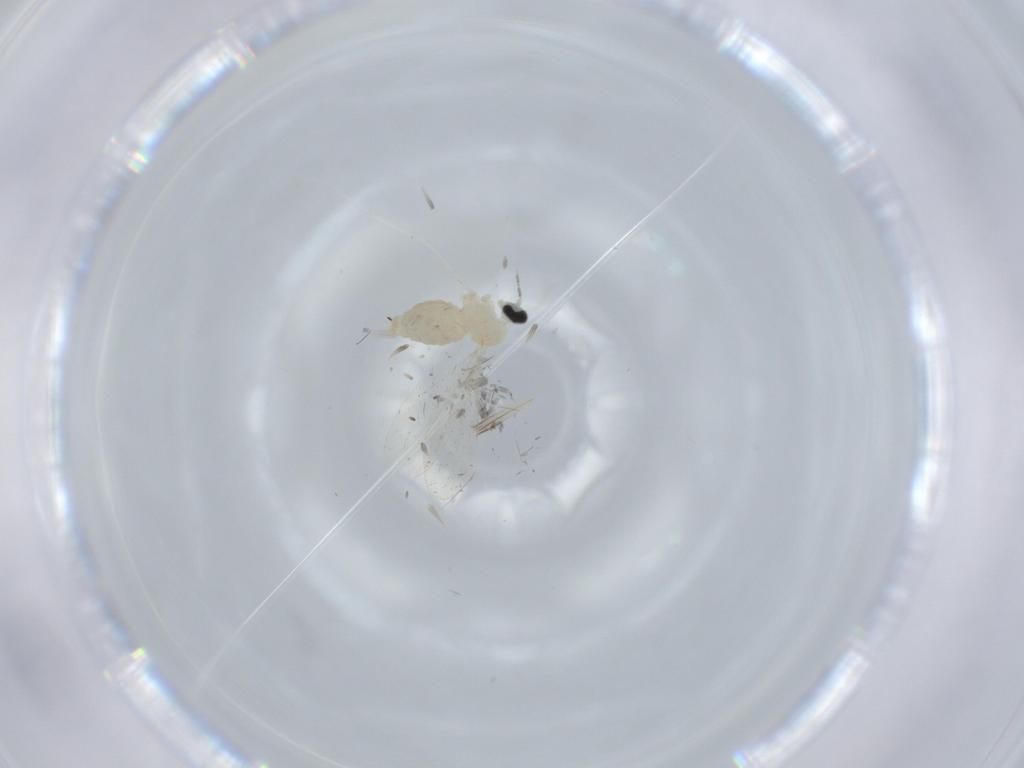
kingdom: Animalia
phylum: Arthropoda
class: Insecta
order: Diptera
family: Cecidomyiidae
